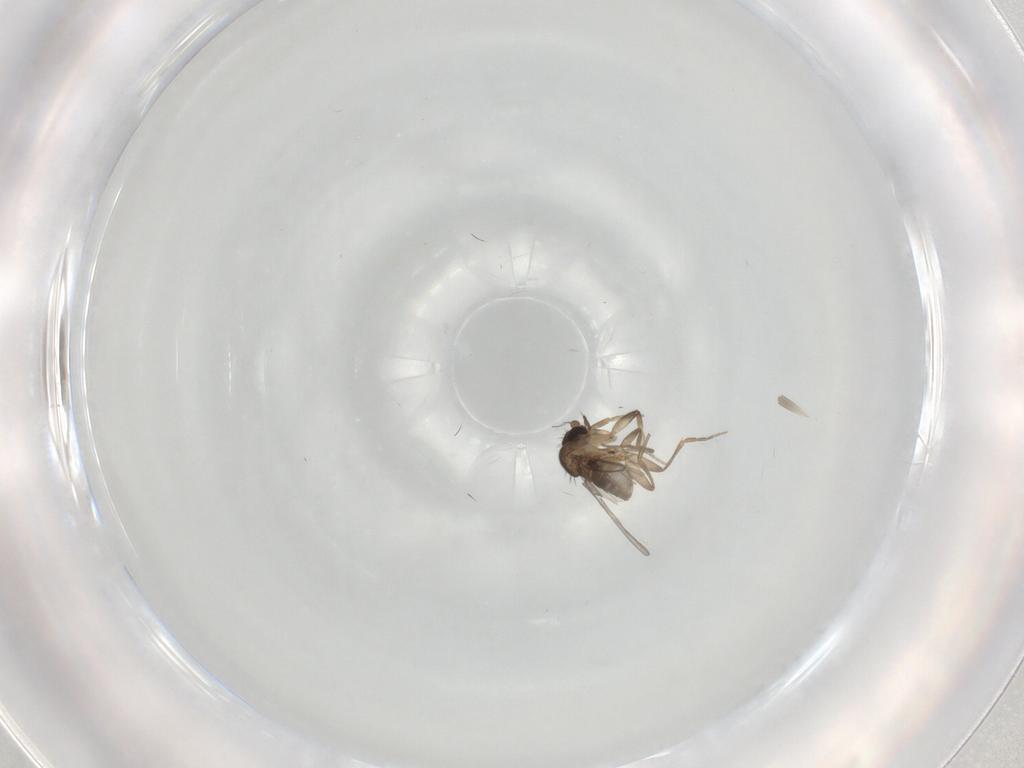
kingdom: Animalia
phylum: Arthropoda
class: Insecta
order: Diptera
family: Phoridae
